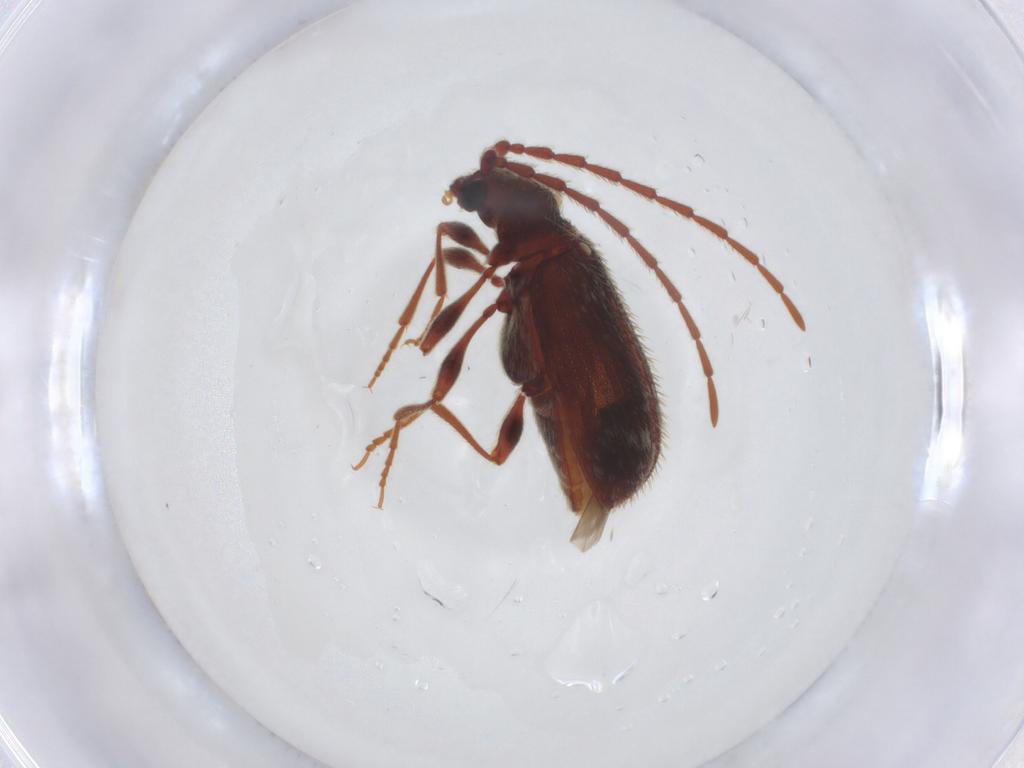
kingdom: Animalia
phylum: Arthropoda
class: Insecta
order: Coleoptera
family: Ptinidae
